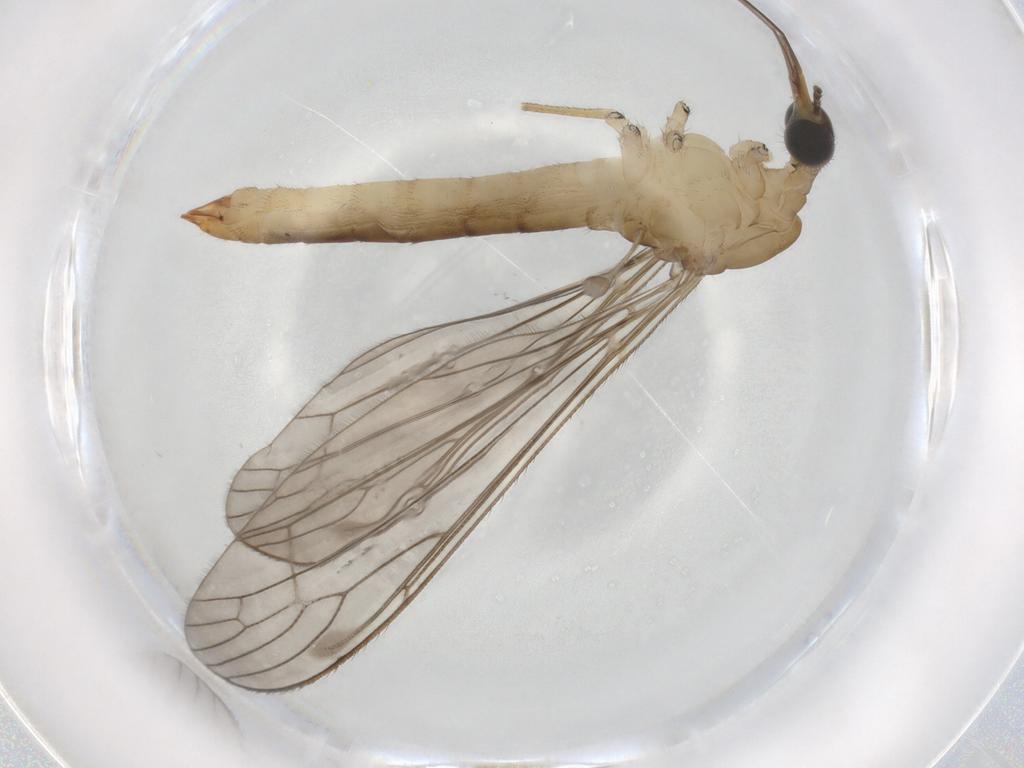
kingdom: Animalia
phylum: Arthropoda
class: Insecta
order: Diptera
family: Limoniidae
